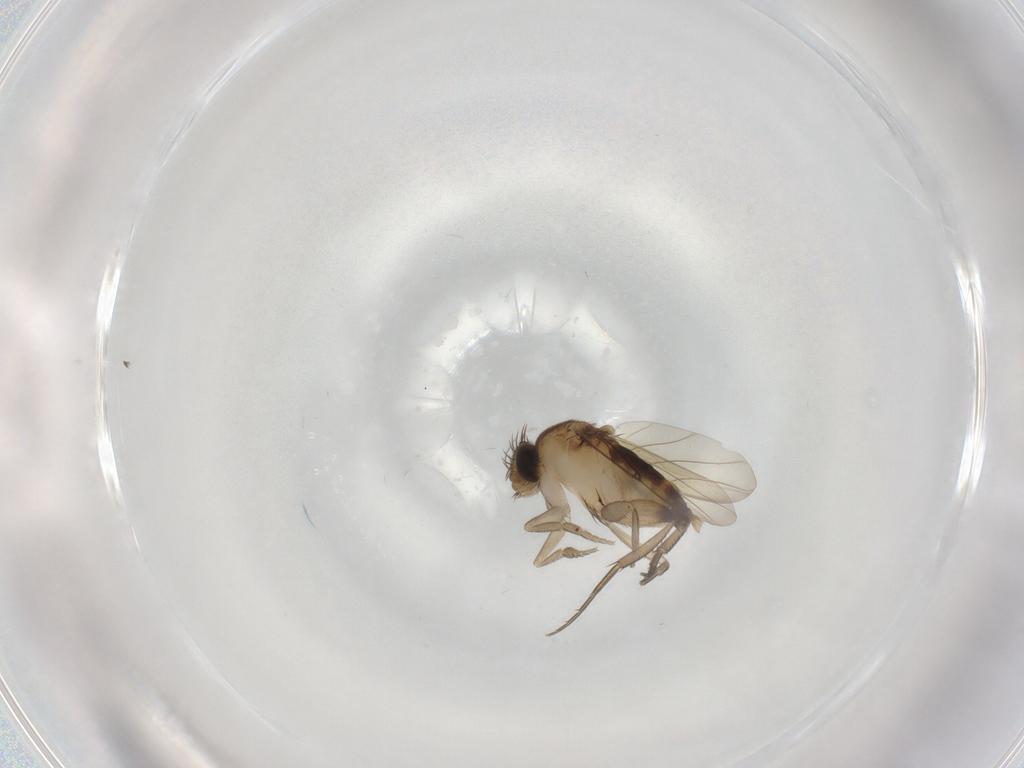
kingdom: Animalia
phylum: Arthropoda
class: Insecta
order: Diptera
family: Phoridae
